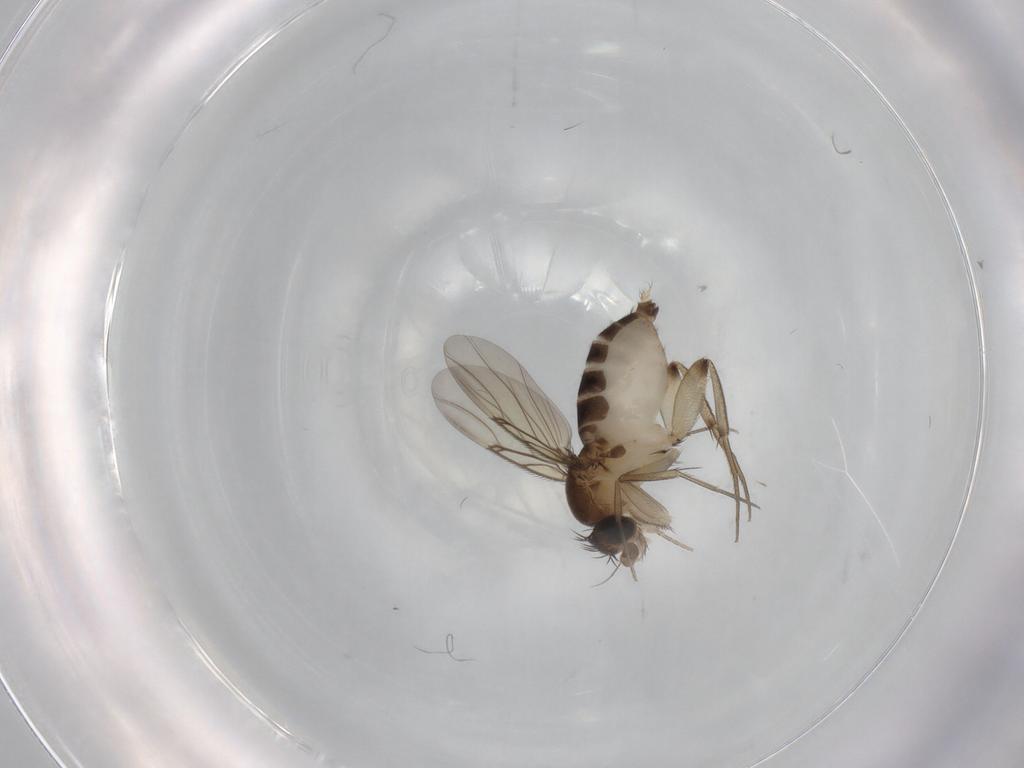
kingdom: Animalia
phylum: Arthropoda
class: Insecta
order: Diptera
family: Phoridae
